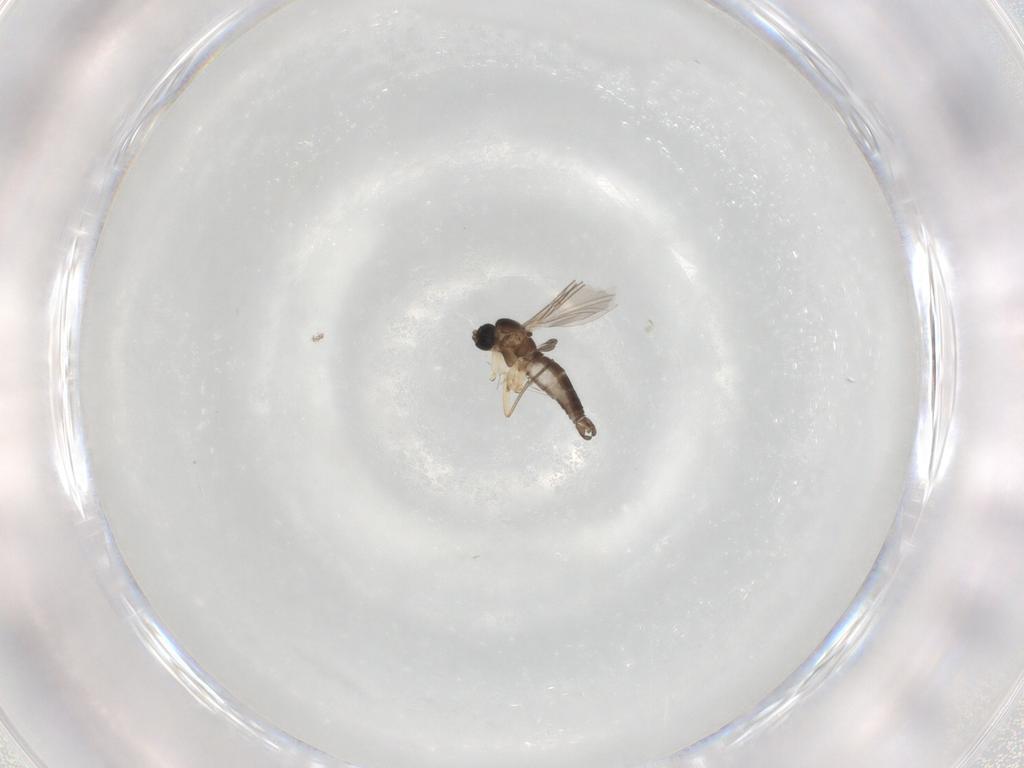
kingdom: Animalia
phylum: Arthropoda
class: Insecta
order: Diptera
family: Sciaridae
